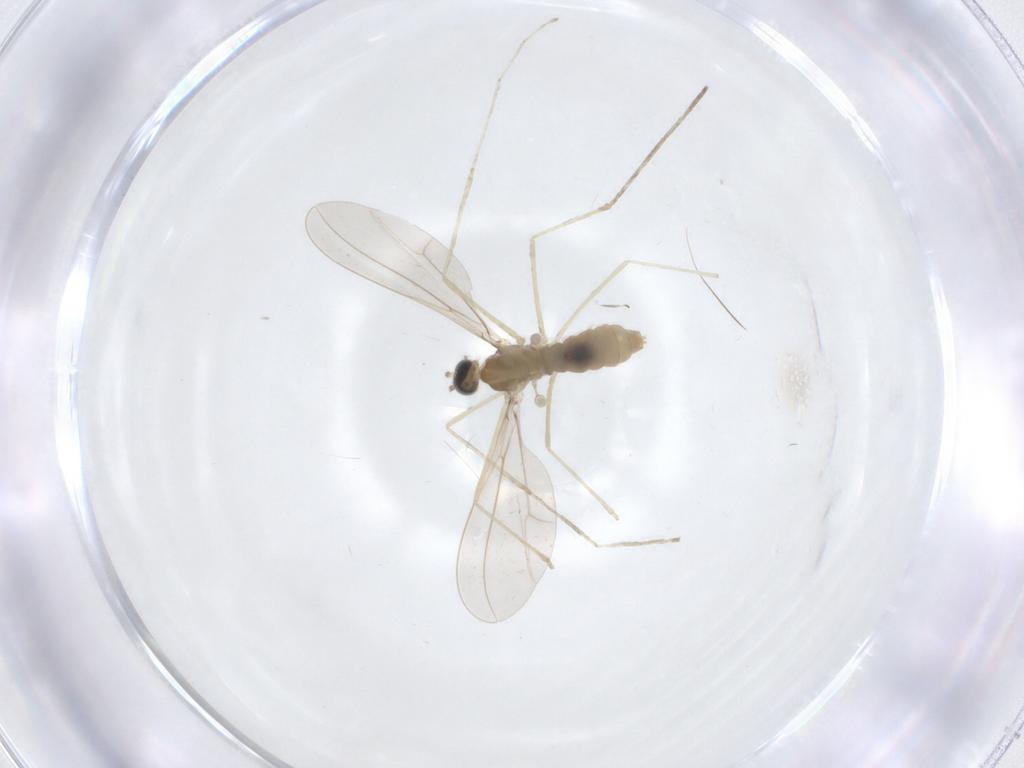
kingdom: Animalia
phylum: Arthropoda
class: Insecta
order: Diptera
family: Cecidomyiidae
